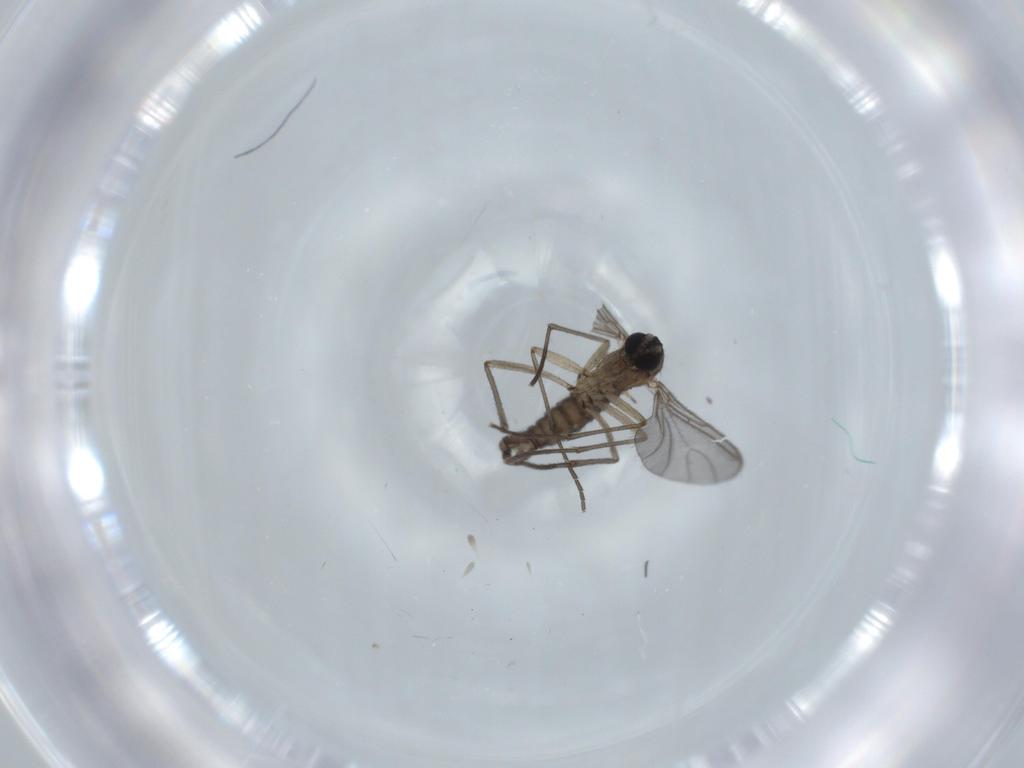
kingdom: Animalia
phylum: Arthropoda
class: Insecta
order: Diptera
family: Sciaridae
